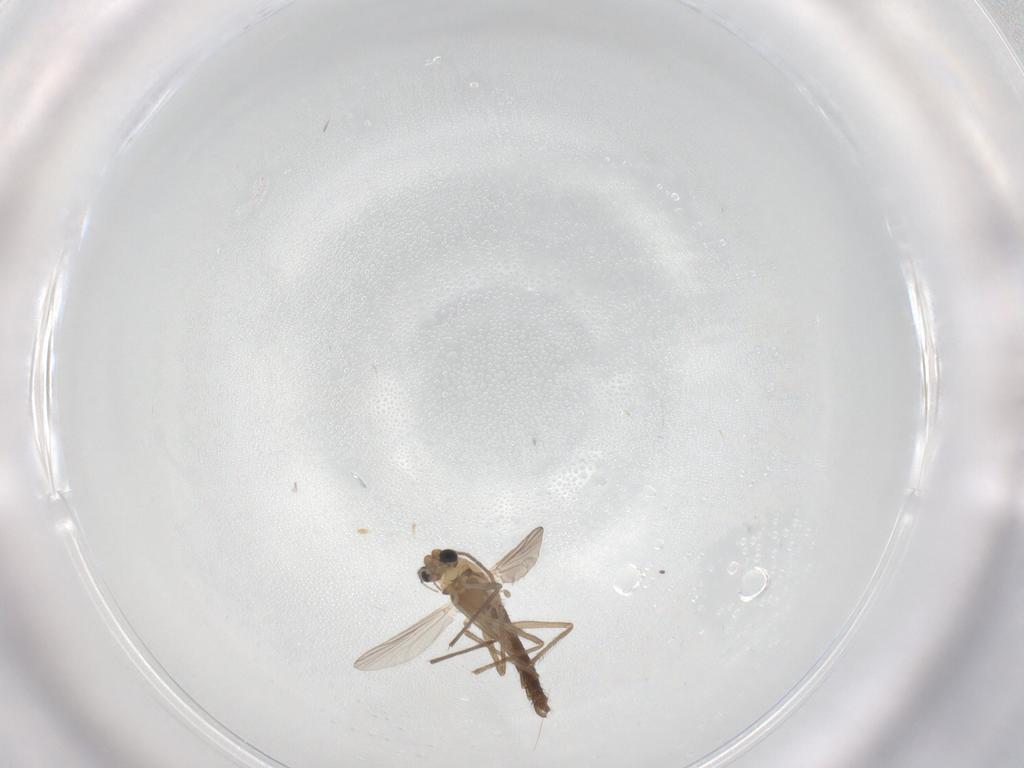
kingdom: Animalia
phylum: Arthropoda
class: Insecta
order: Diptera
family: Chironomidae
